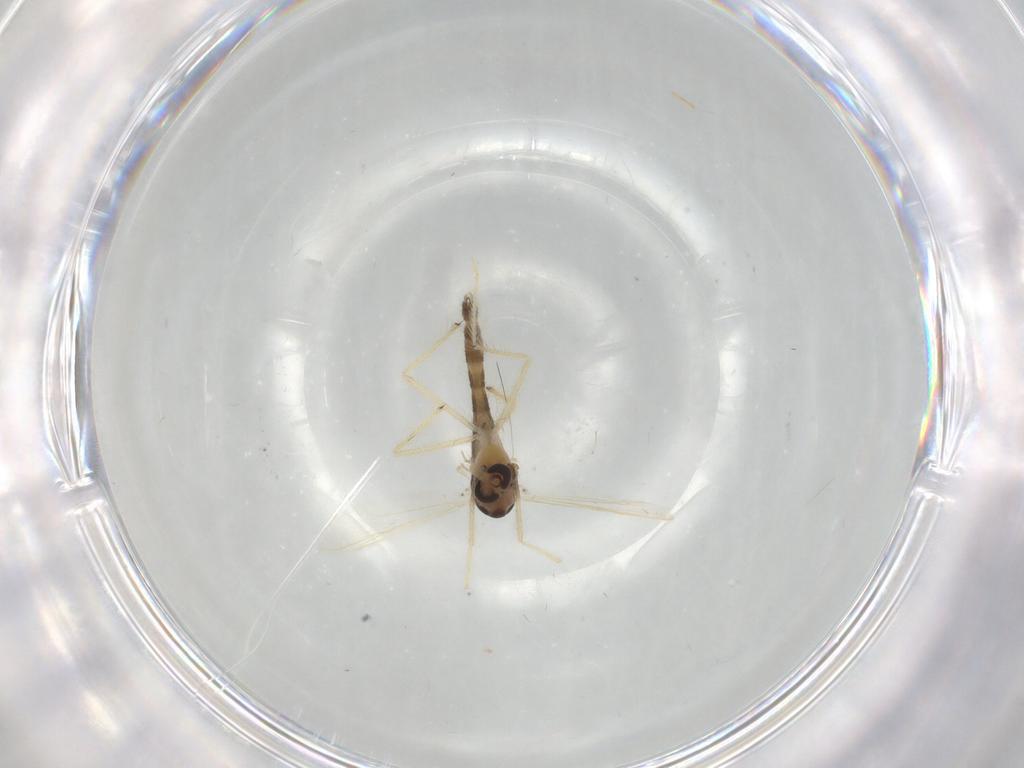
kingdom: Animalia
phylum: Arthropoda
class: Insecta
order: Diptera
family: Chironomidae
